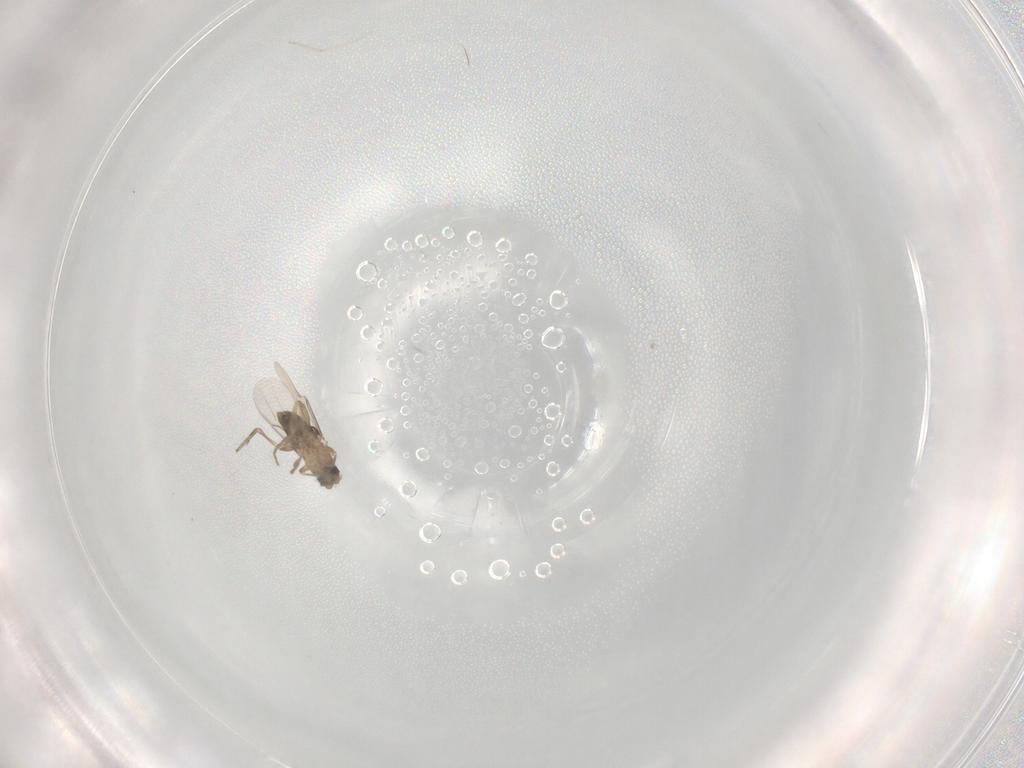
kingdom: Animalia
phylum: Arthropoda
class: Insecta
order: Diptera
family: Phoridae
